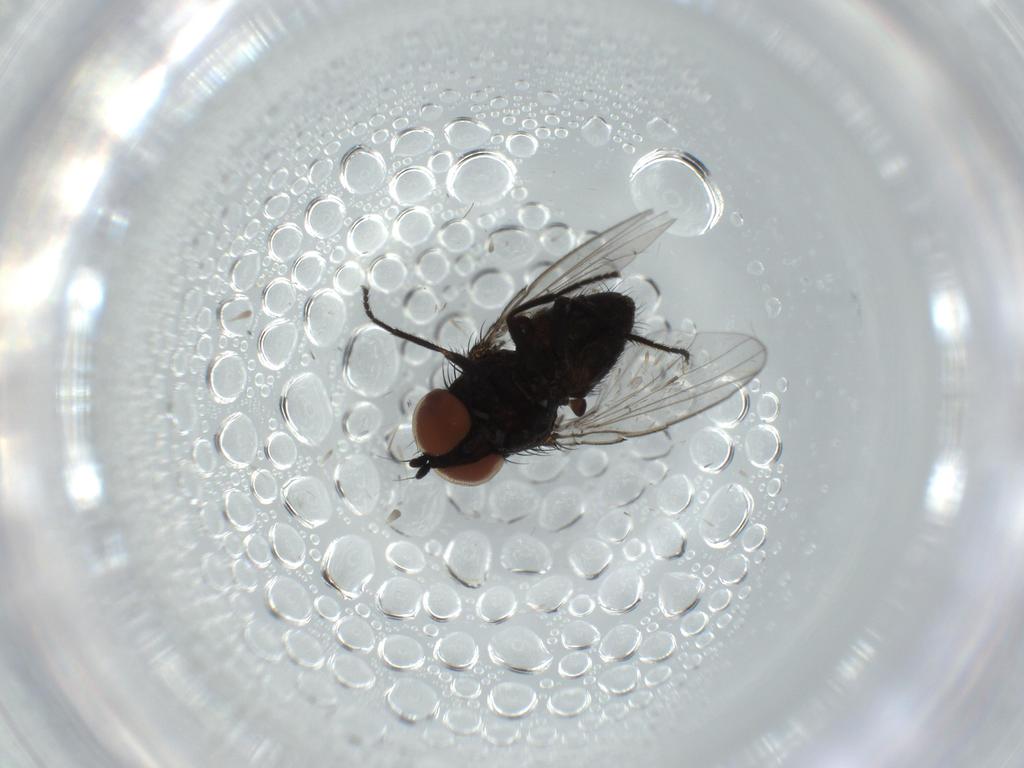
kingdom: Animalia
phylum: Arthropoda
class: Insecta
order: Diptera
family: Milichiidae
